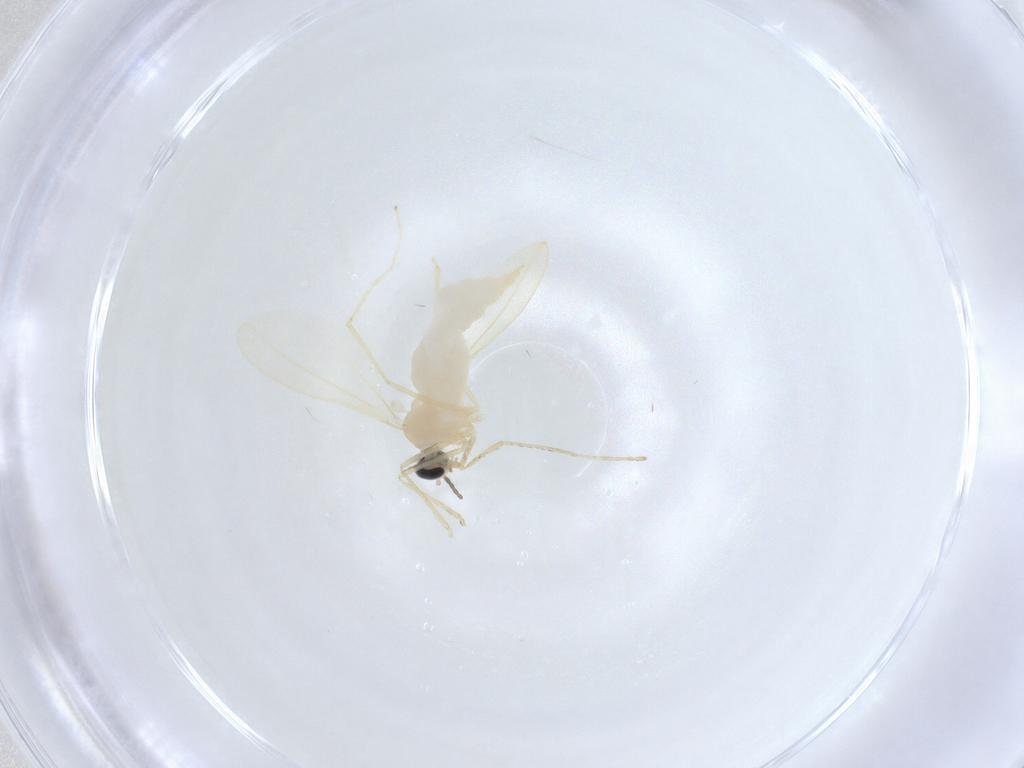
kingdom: Animalia
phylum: Arthropoda
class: Insecta
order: Diptera
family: Cecidomyiidae
